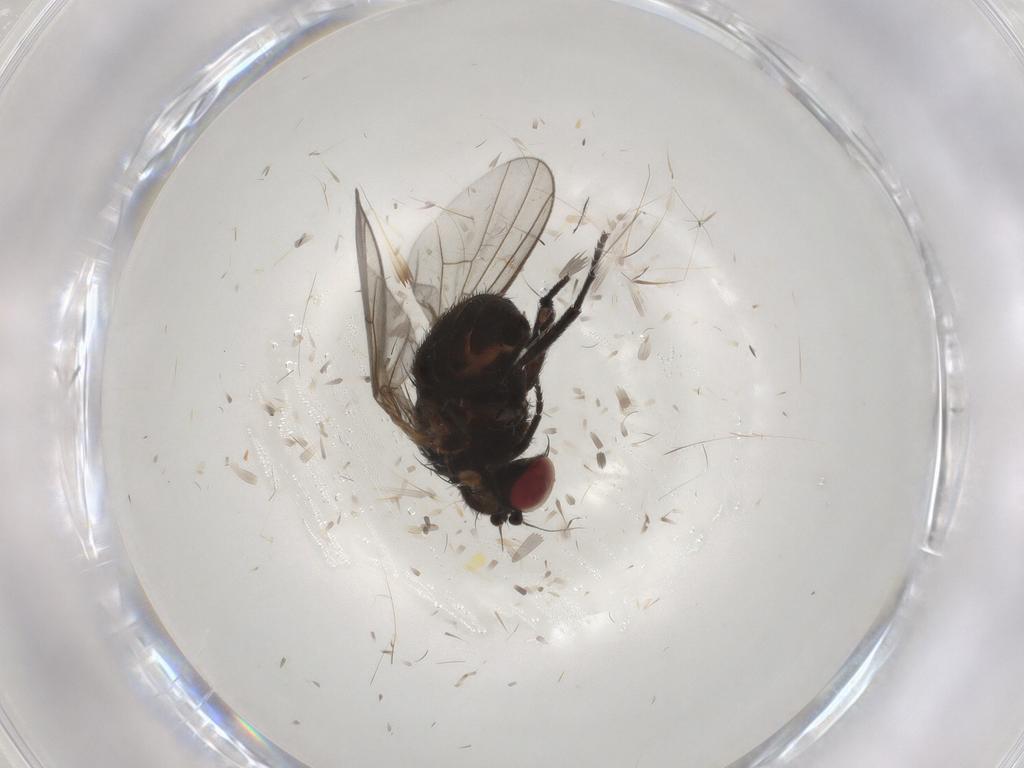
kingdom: Animalia
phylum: Arthropoda
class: Insecta
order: Diptera
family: Agromyzidae
